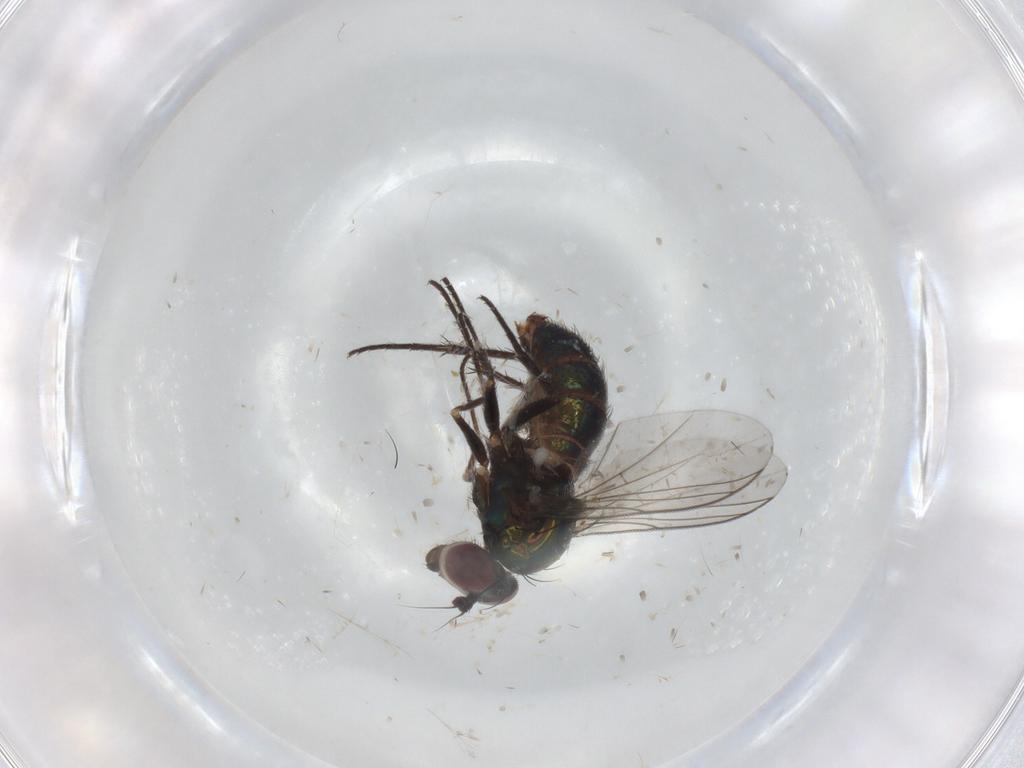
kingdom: Animalia
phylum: Arthropoda
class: Insecta
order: Diptera
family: Dolichopodidae
